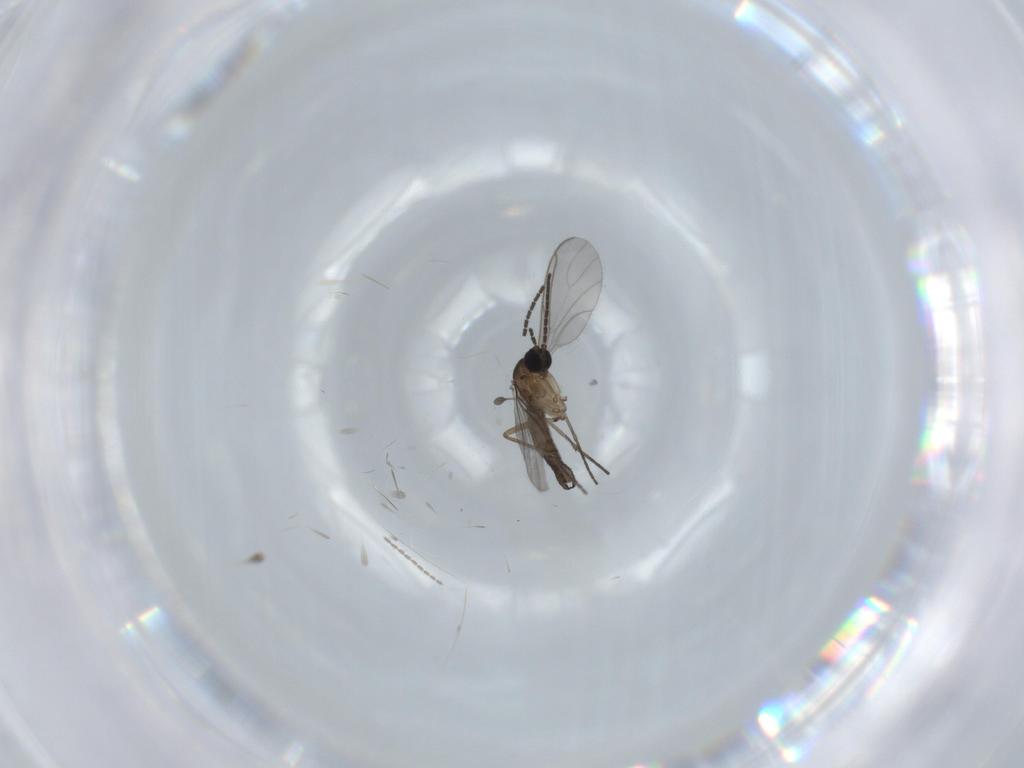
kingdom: Animalia
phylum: Arthropoda
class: Insecta
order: Diptera
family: Sciaridae
